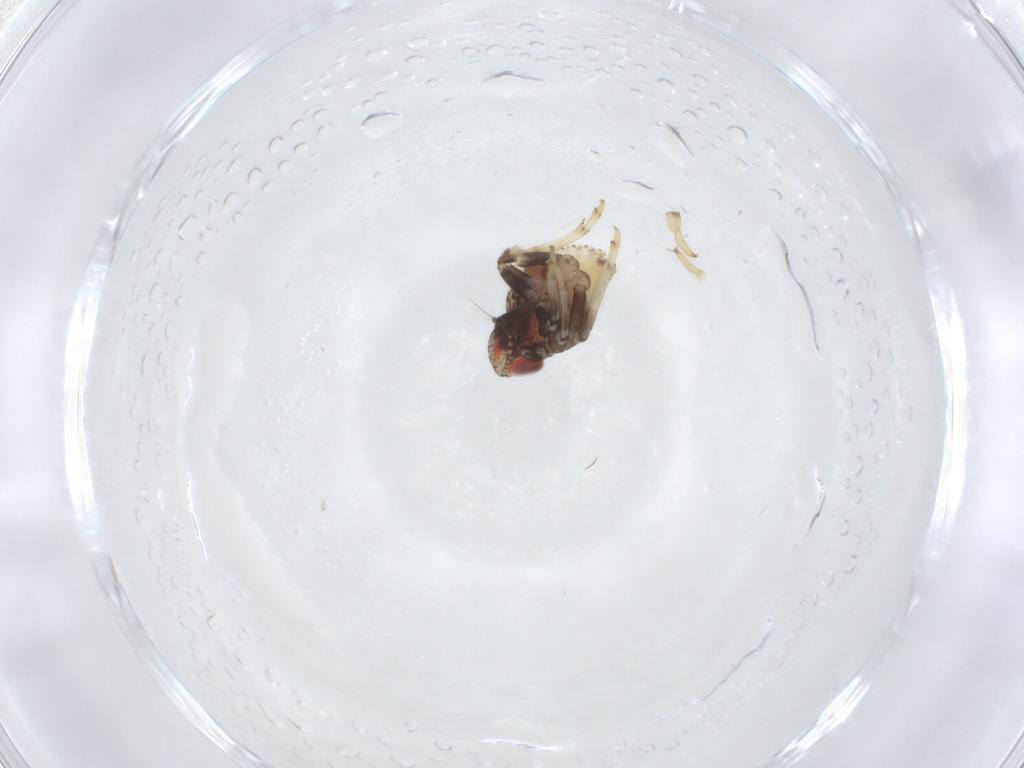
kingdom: Animalia
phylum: Arthropoda
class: Insecta
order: Hemiptera
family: Issidae
